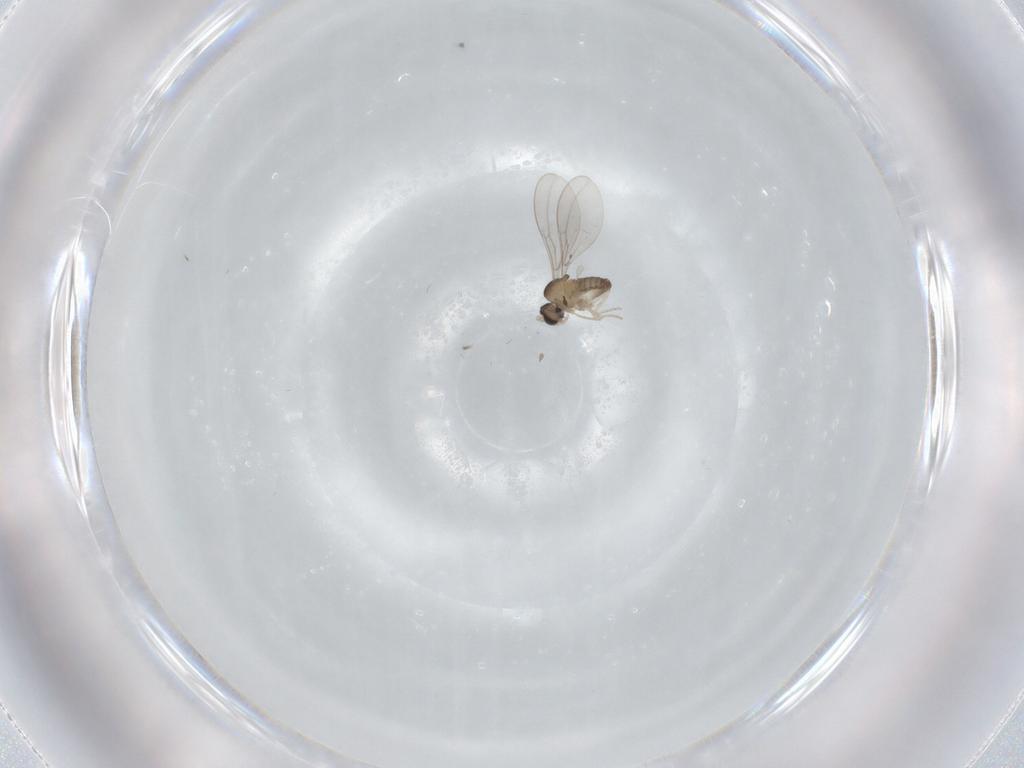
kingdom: Animalia
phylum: Arthropoda
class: Insecta
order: Diptera
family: Cecidomyiidae
